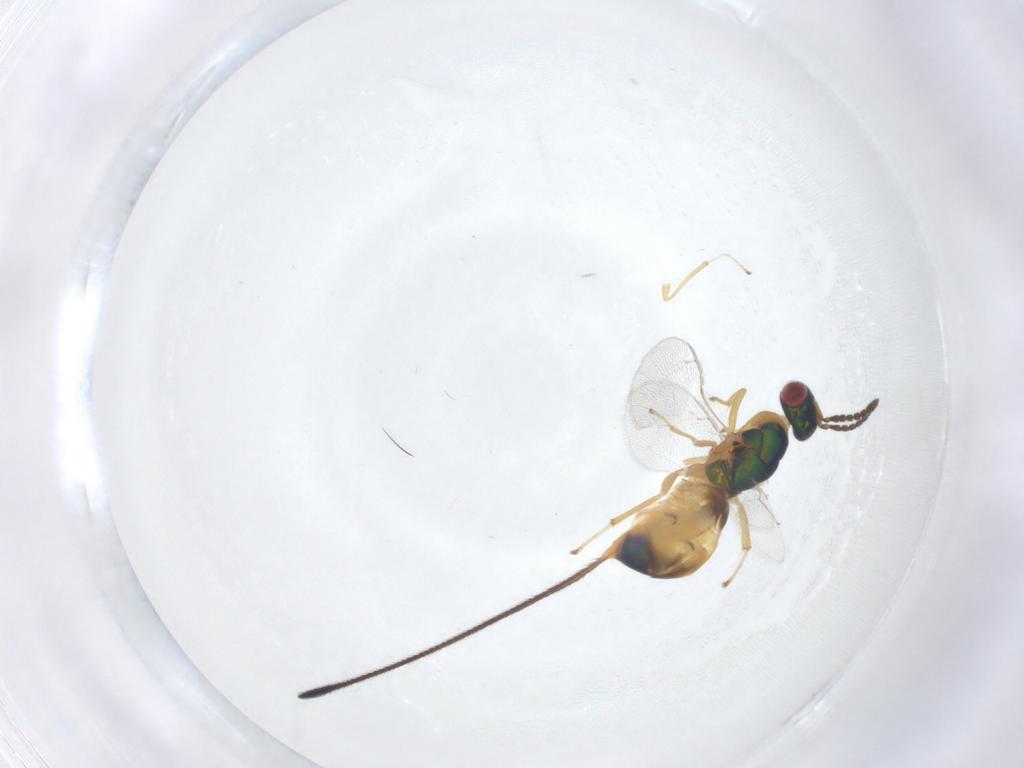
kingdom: Animalia
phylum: Arthropoda
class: Insecta
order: Hymenoptera
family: Pteromalidae
